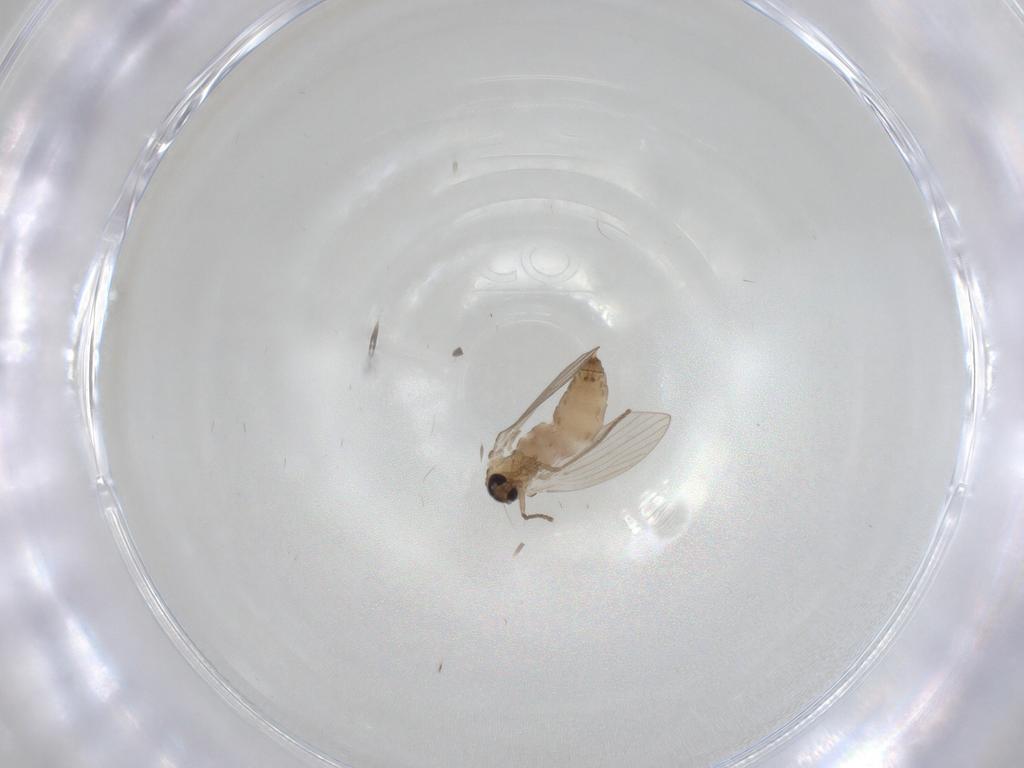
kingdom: Animalia
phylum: Arthropoda
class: Insecta
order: Diptera
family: Psychodidae
